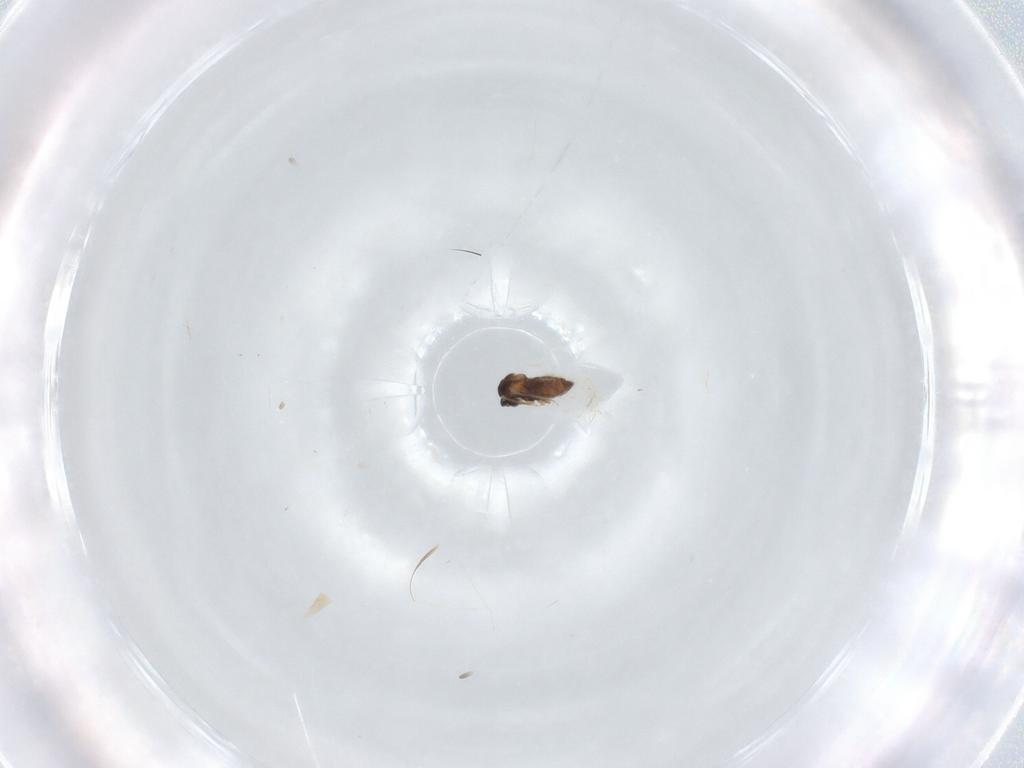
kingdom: Animalia
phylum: Arthropoda
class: Insecta
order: Diptera
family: Cecidomyiidae
